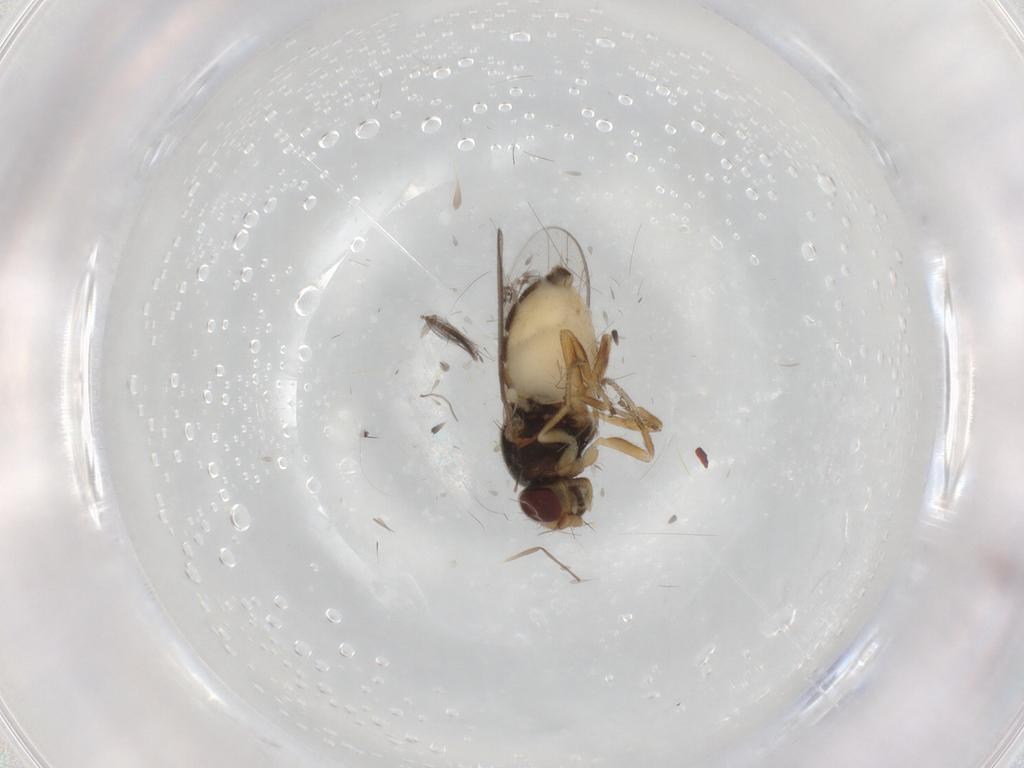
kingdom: Animalia
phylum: Arthropoda
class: Insecta
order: Diptera
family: Chloropidae
